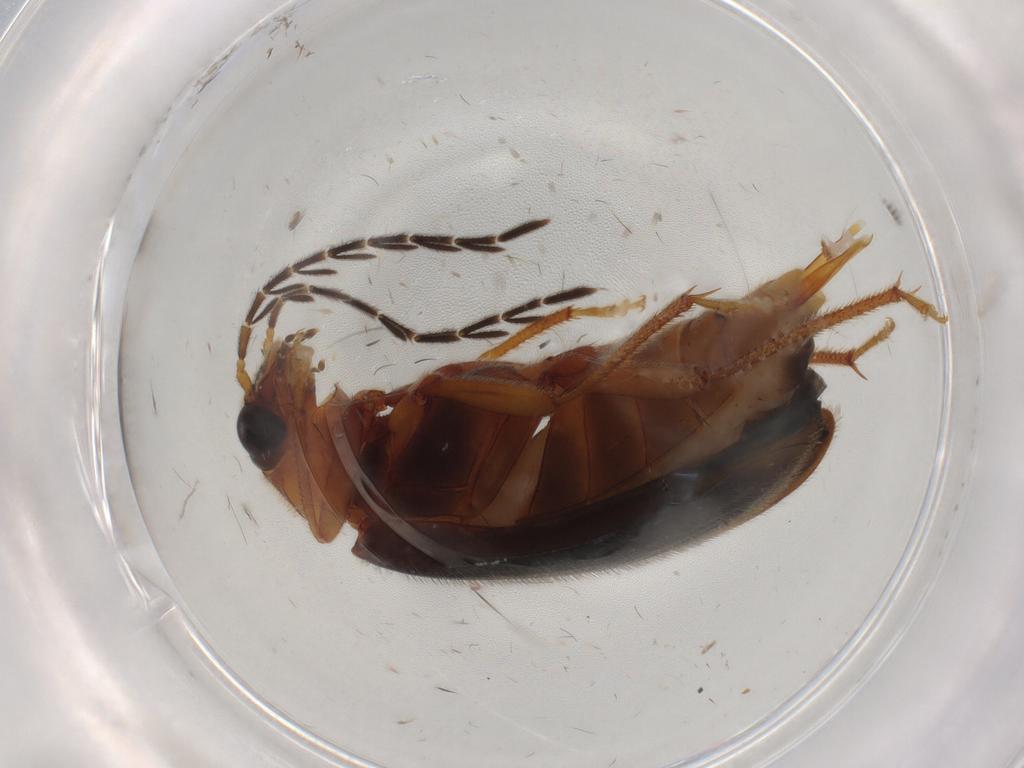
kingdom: Animalia
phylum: Arthropoda
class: Insecta
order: Coleoptera
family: Ptilodactylidae
